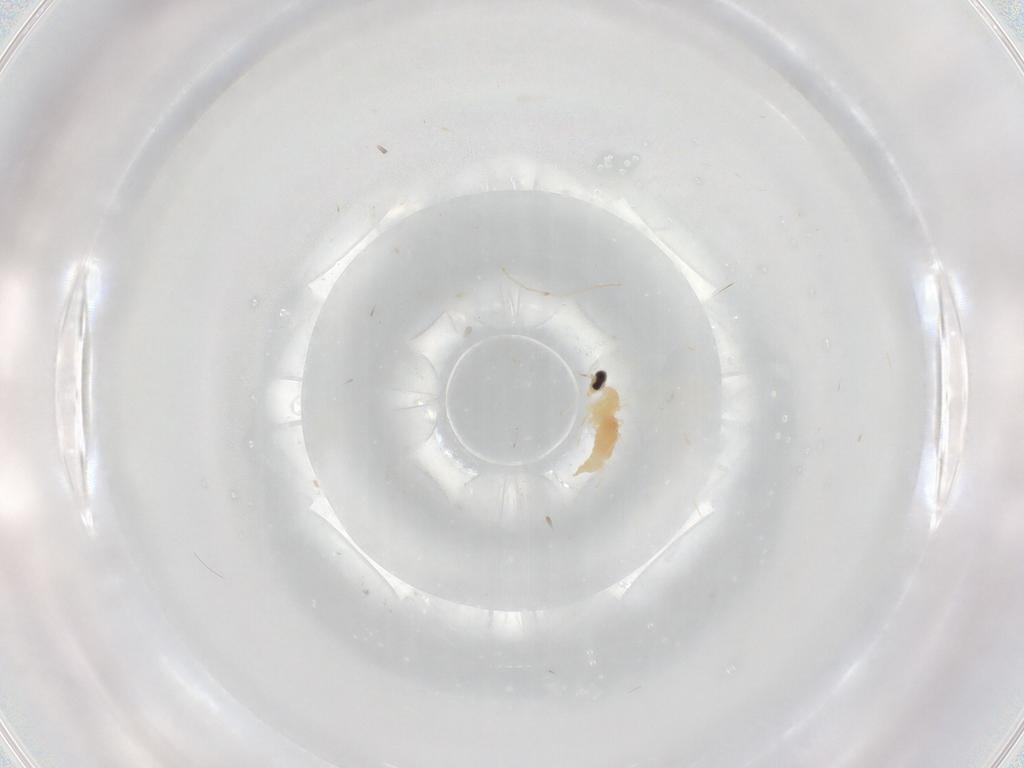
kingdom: Animalia
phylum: Arthropoda
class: Insecta
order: Diptera
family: Cecidomyiidae
